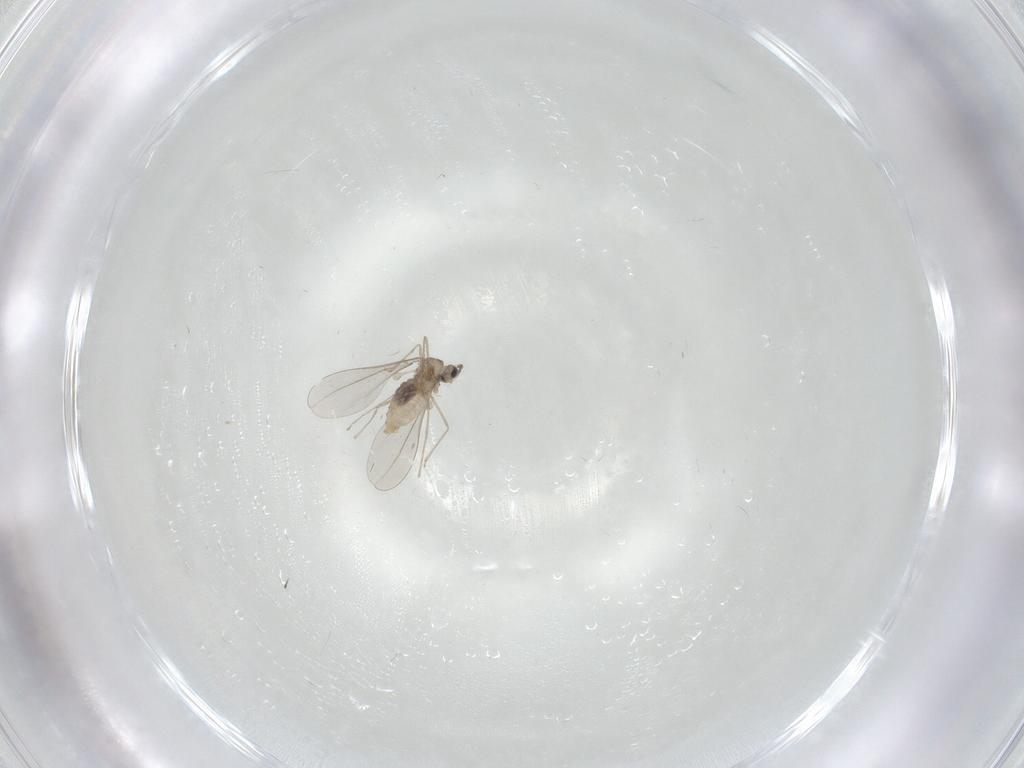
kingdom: Animalia
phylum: Arthropoda
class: Insecta
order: Diptera
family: Cecidomyiidae
